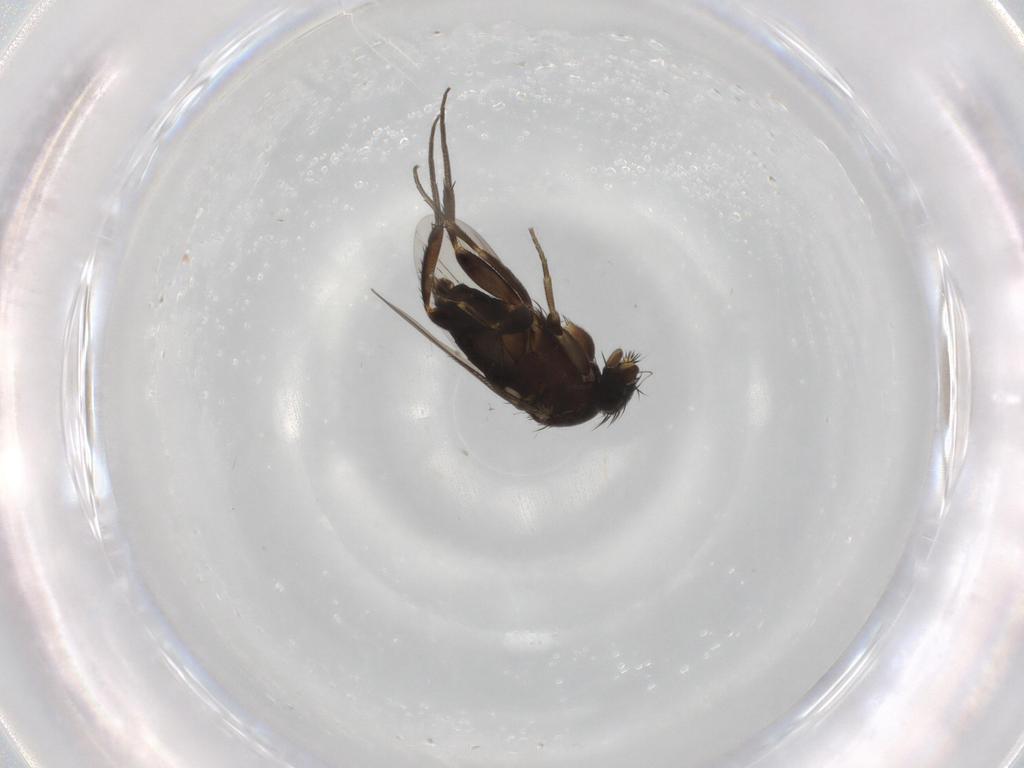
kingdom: Animalia
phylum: Arthropoda
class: Insecta
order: Diptera
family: Phoridae
